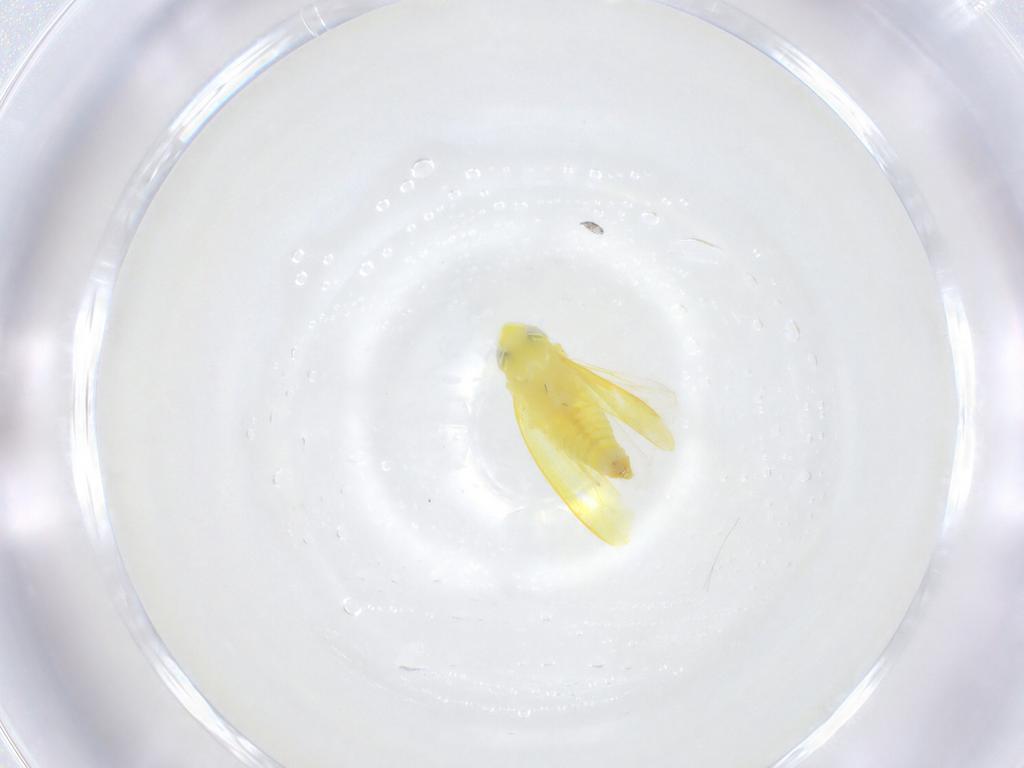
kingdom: Animalia
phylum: Arthropoda
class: Insecta
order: Hemiptera
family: Cicadellidae
